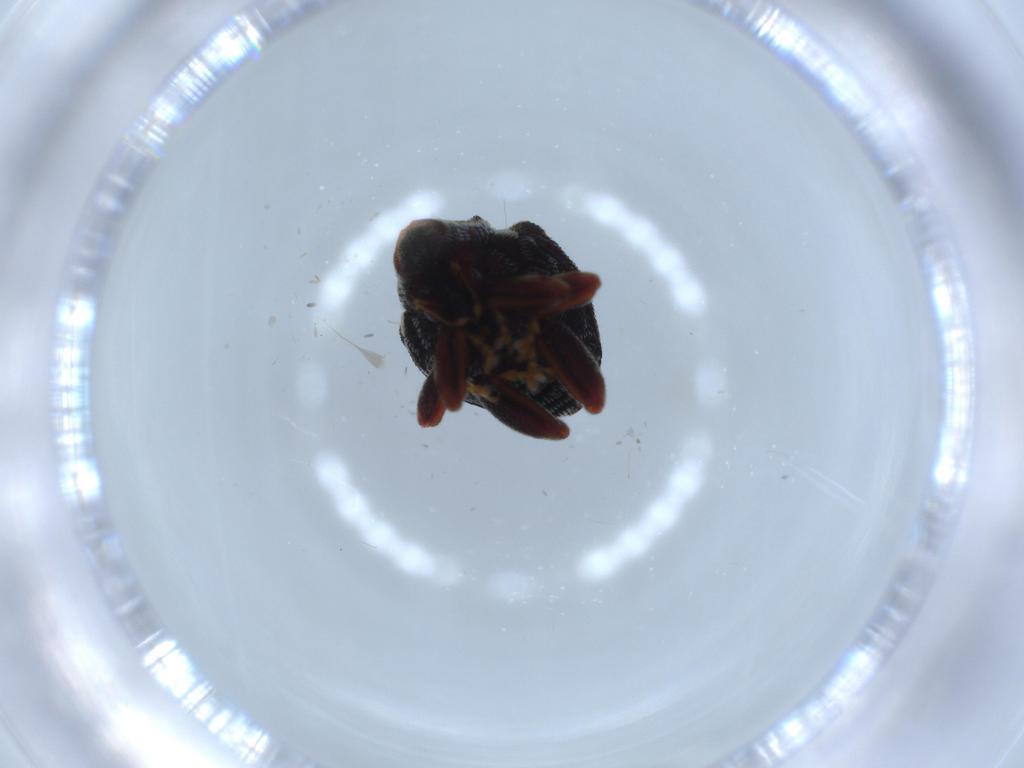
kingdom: Animalia
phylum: Arthropoda
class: Insecta
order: Coleoptera
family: Curculionidae
